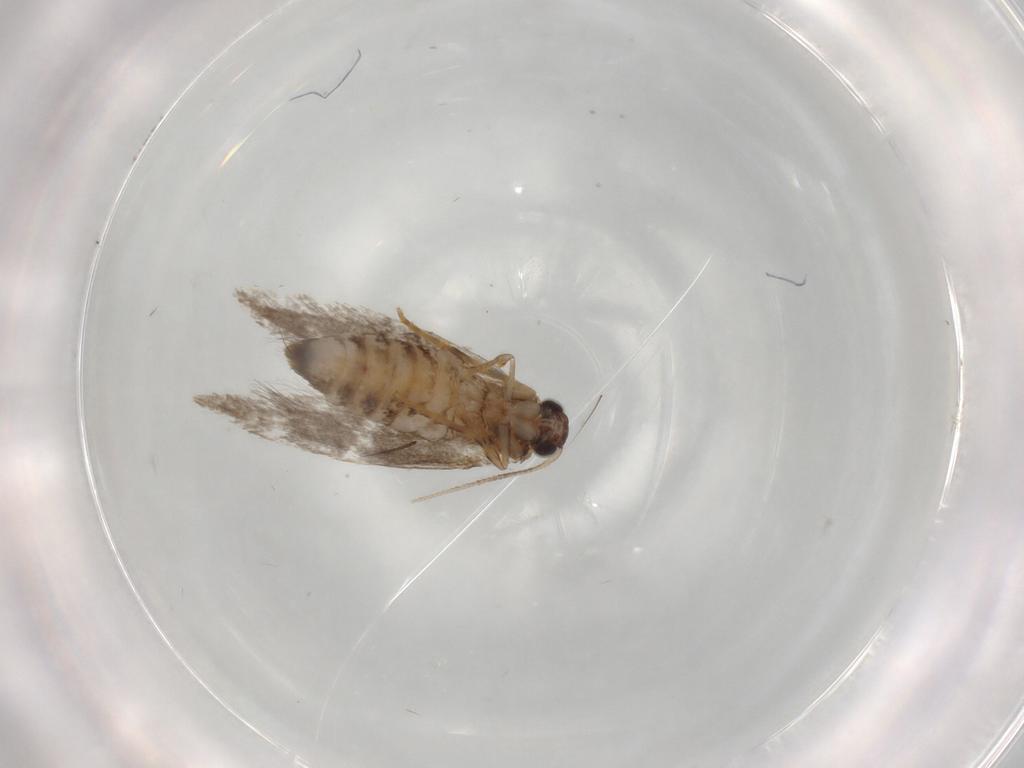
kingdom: Animalia
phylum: Arthropoda
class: Insecta
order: Lepidoptera
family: Tineidae
